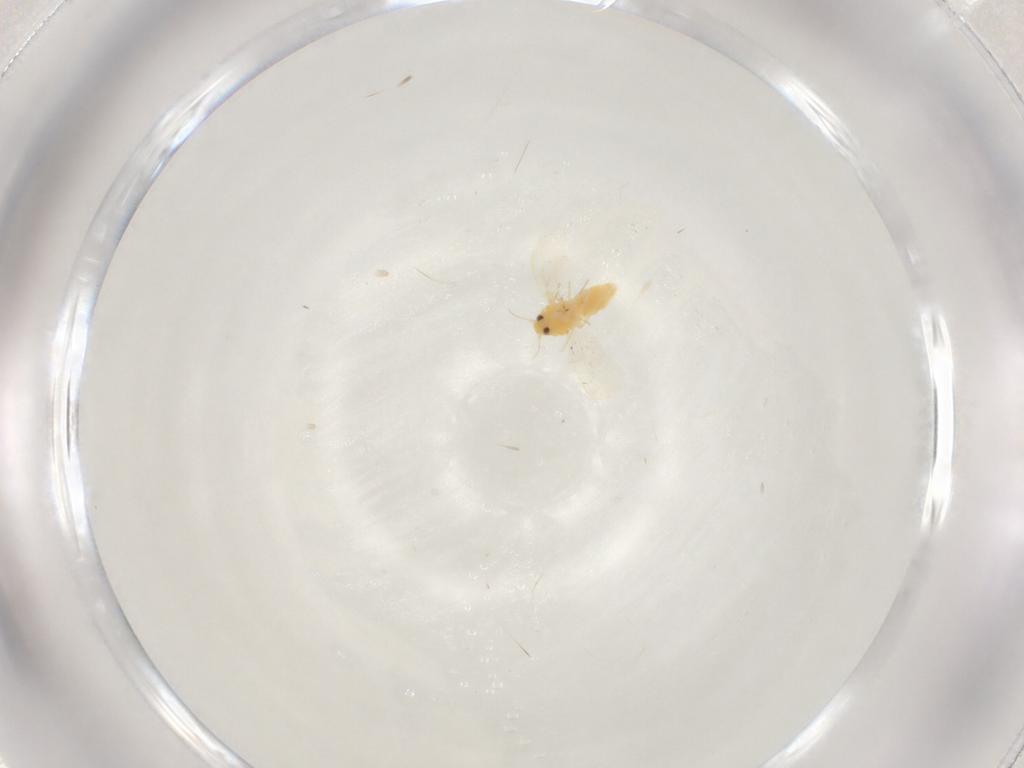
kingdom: Animalia
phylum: Arthropoda
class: Insecta
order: Hemiptera
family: Aleyrodidae
